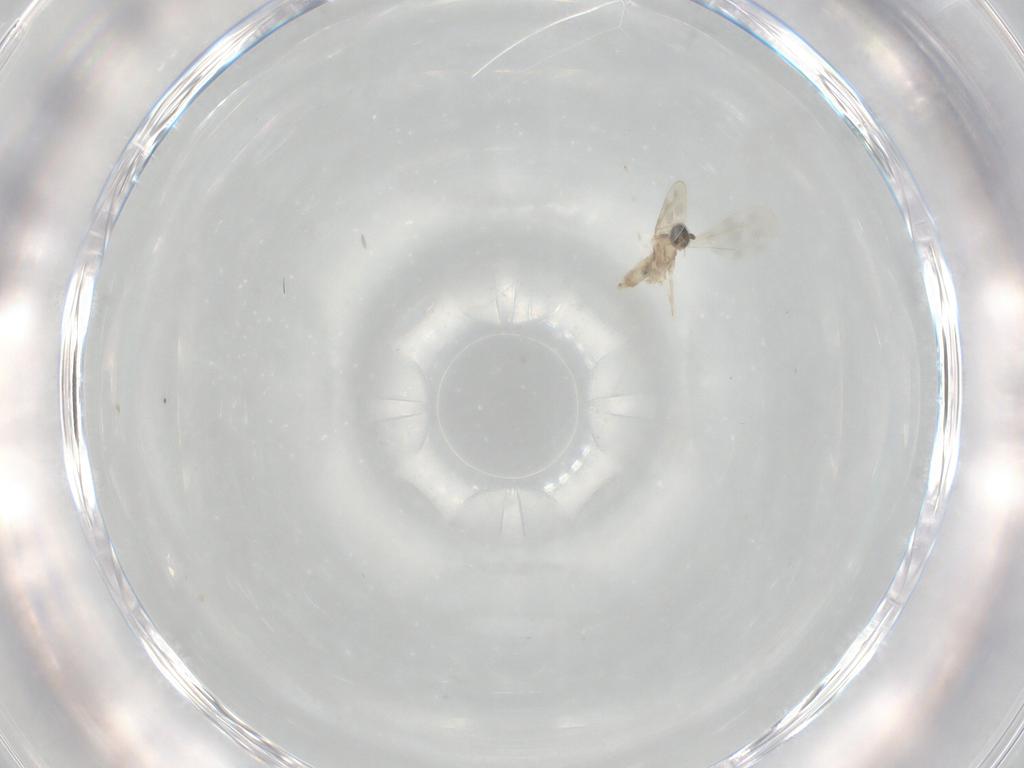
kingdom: Animalia
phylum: Arthropoda
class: Insecta
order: Diptera
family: Cecidomyiidae
